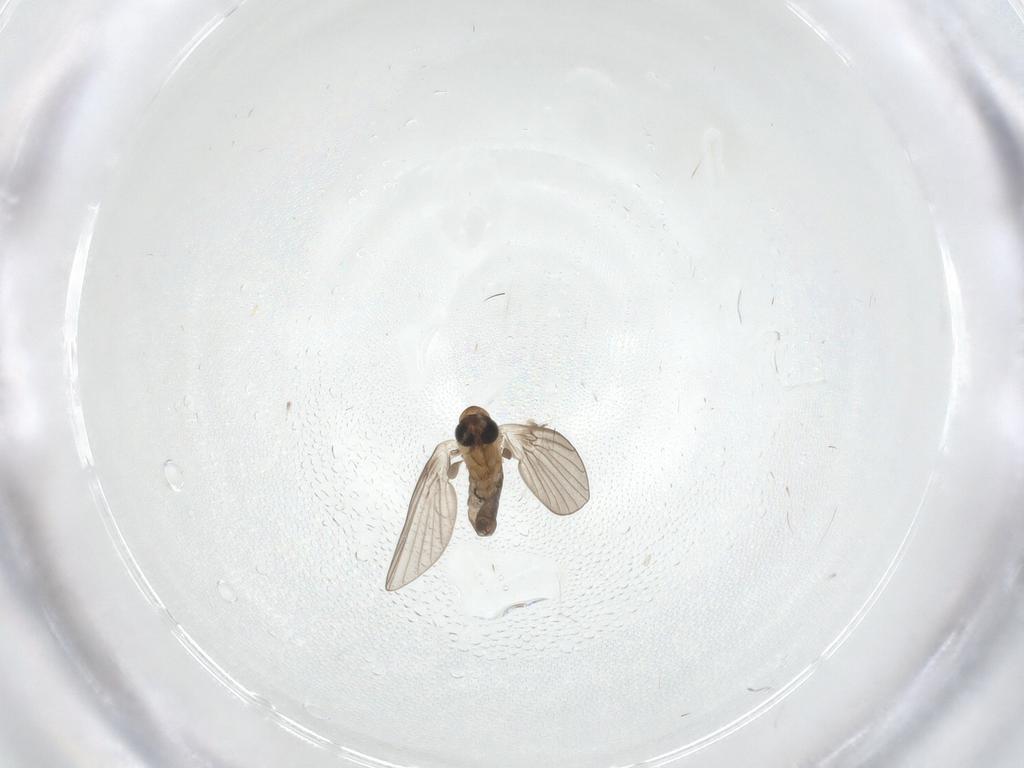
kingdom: Animalia
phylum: Arthropoda
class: Insecta
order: Diptera
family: Cecidomyiidae
